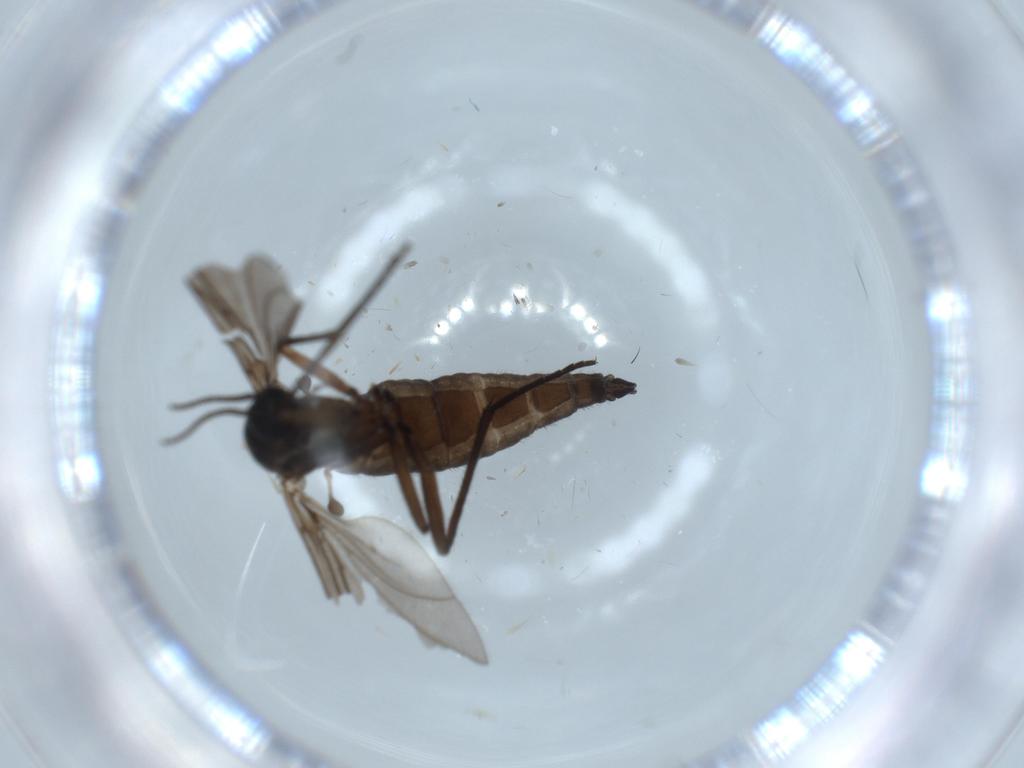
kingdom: Animalia
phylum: Arthropoda
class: Insecta
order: Diptera
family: Sciaridae
